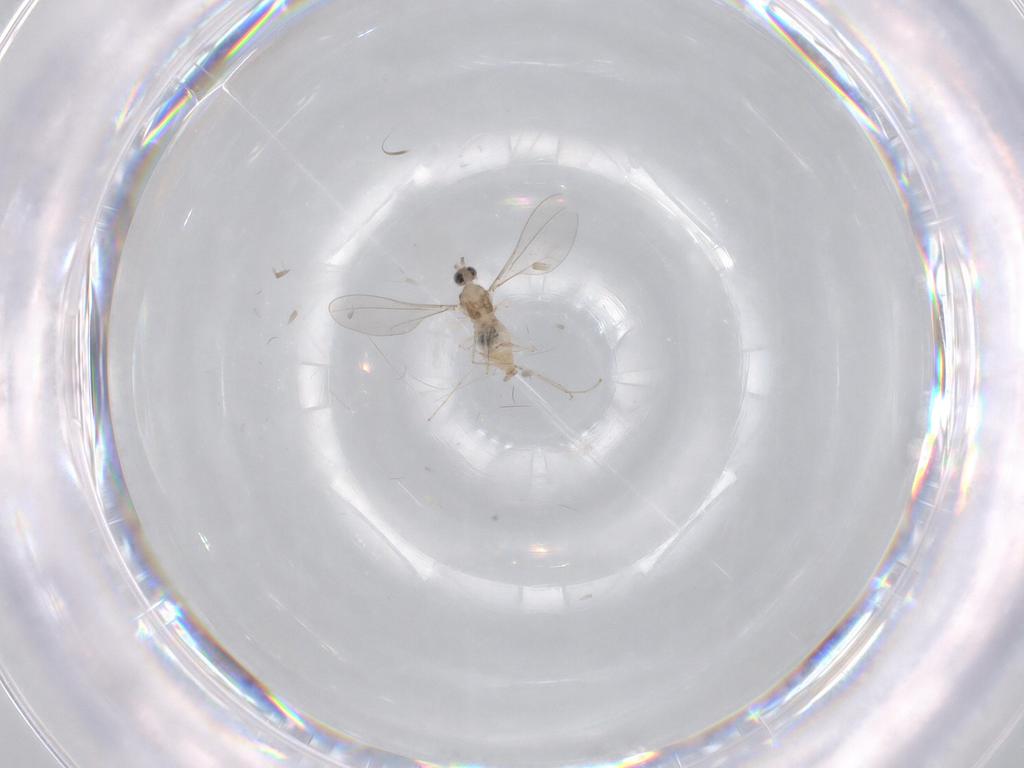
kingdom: Animalia
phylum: Arthropoda
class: Insecta
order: Diptera
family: Cecidomyiidae
